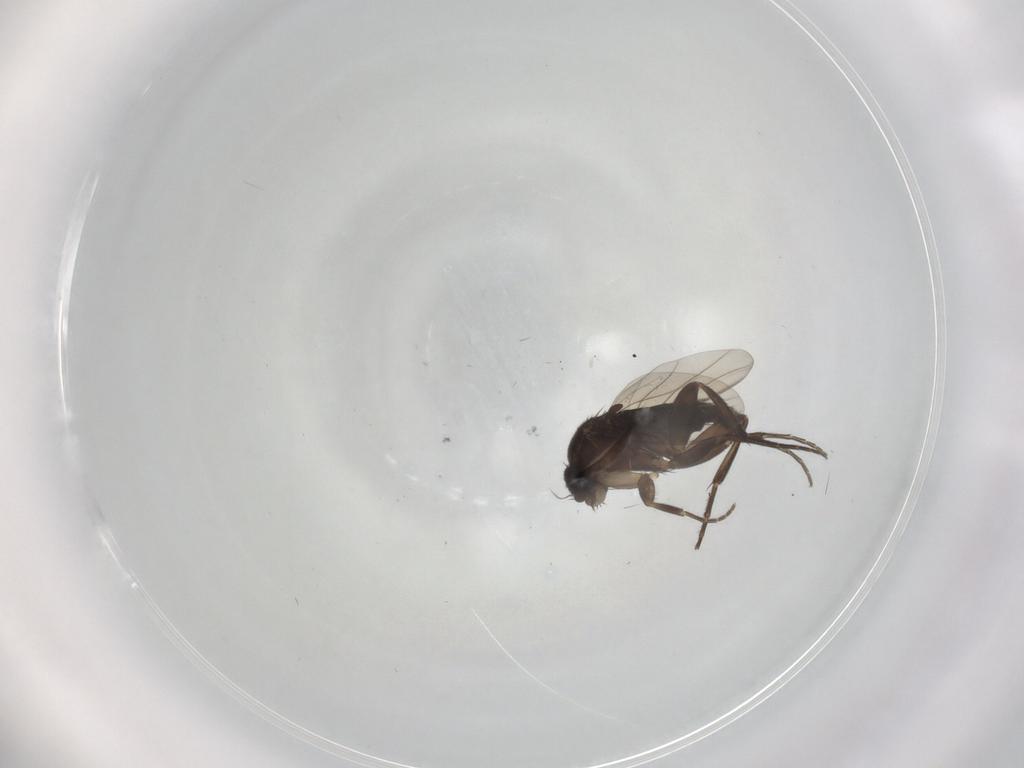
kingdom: Animalia
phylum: Arthropoda
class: Insecta
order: Diptera
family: Phoridae
